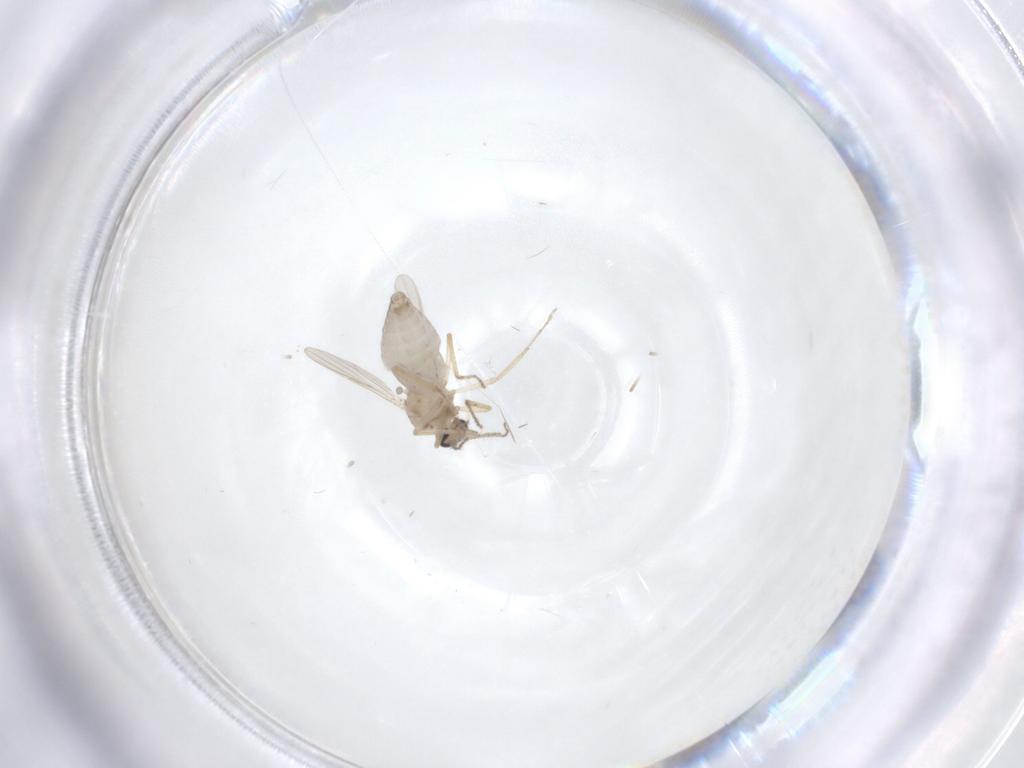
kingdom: Animalia
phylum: Arthropoda
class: Insecta
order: Diptera
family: Ceratopogonidae
